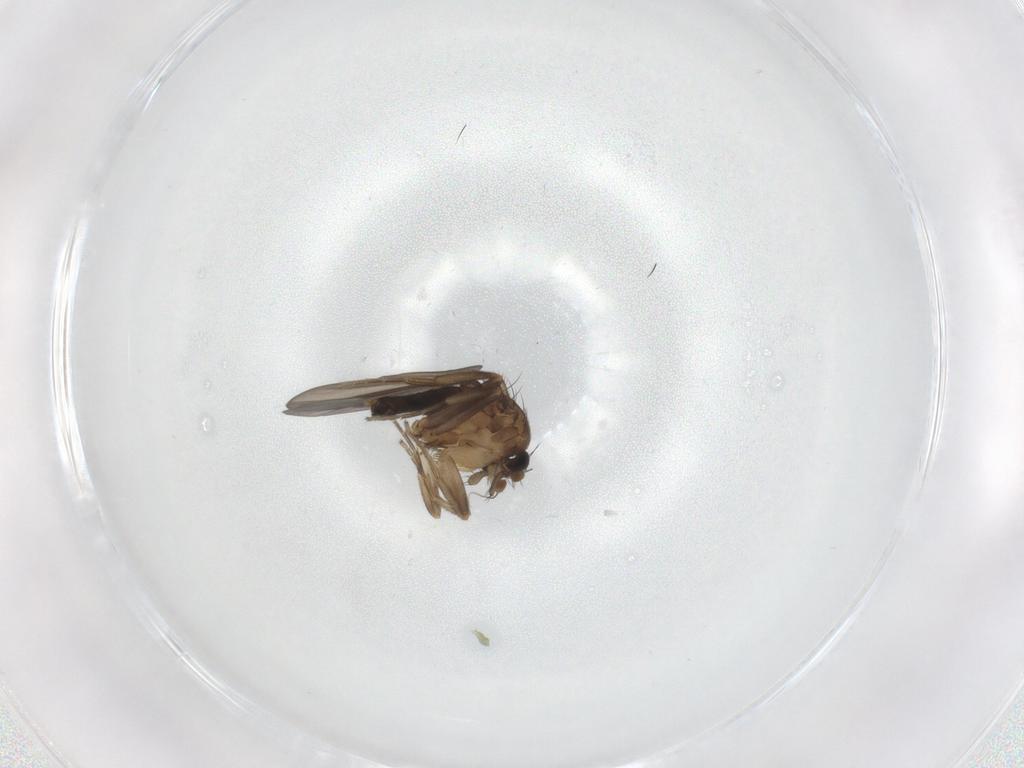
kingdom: Animalia
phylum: Arthropoda
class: Insecta
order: Diptera
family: Phoridae
